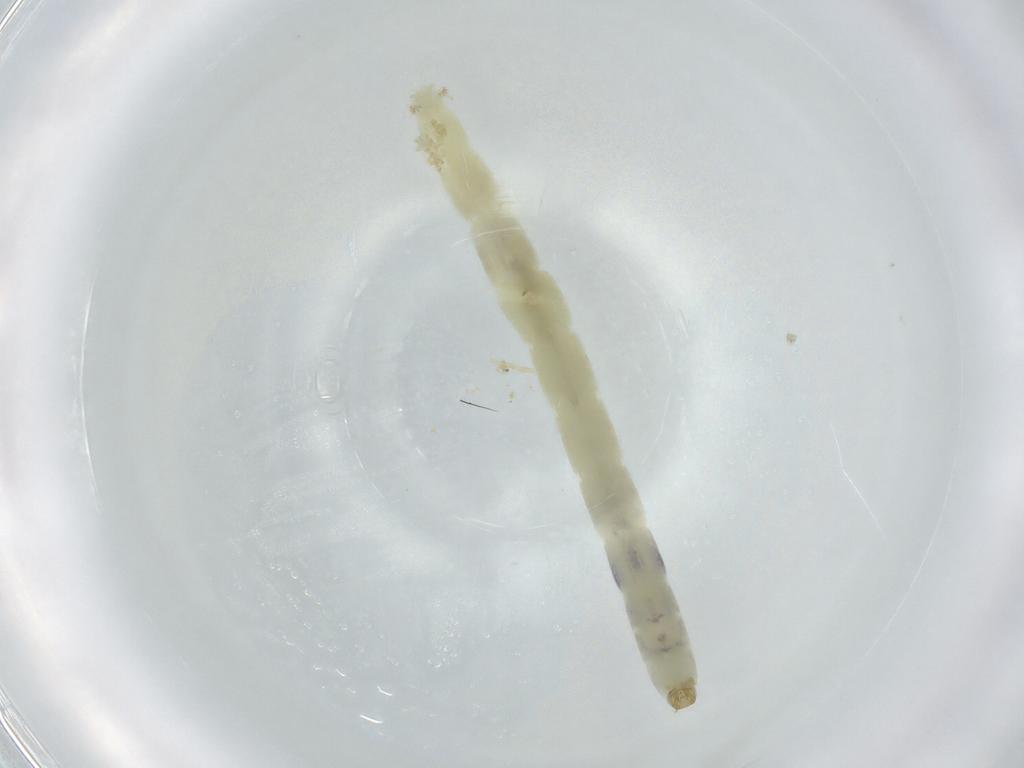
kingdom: Animalia
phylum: Arthropoda
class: Insecta
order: Diptera
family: Chironomidae
